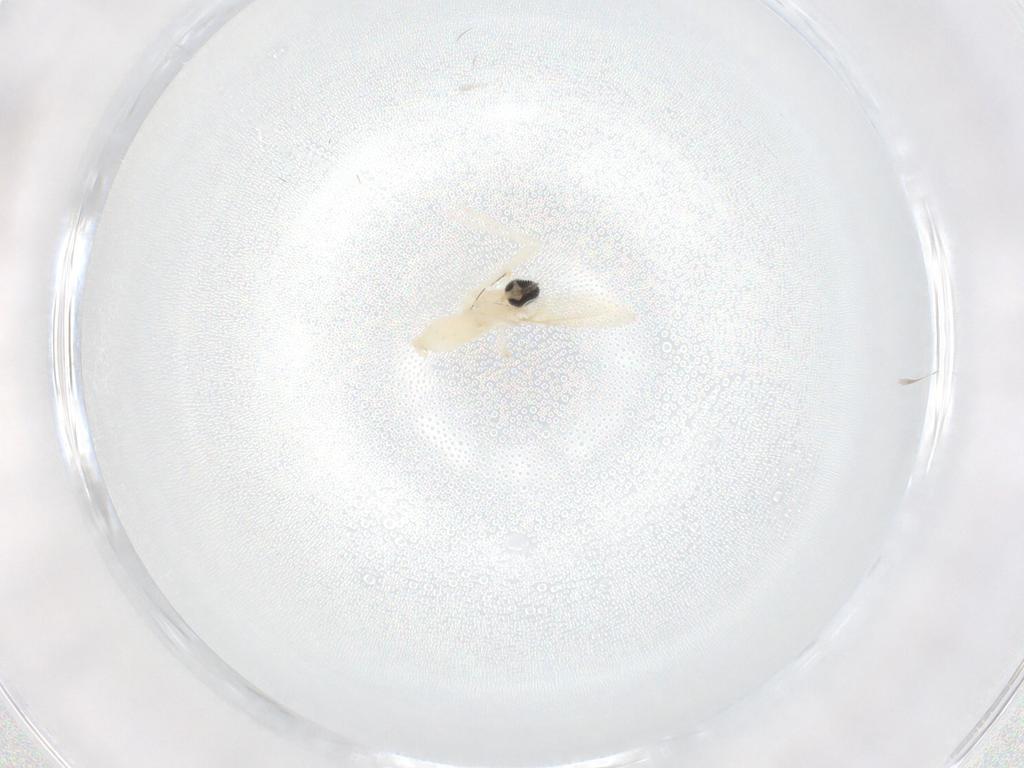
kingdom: Animalia
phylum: Arthropoda
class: Insecta
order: Diptera
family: Cecidomyiidae
